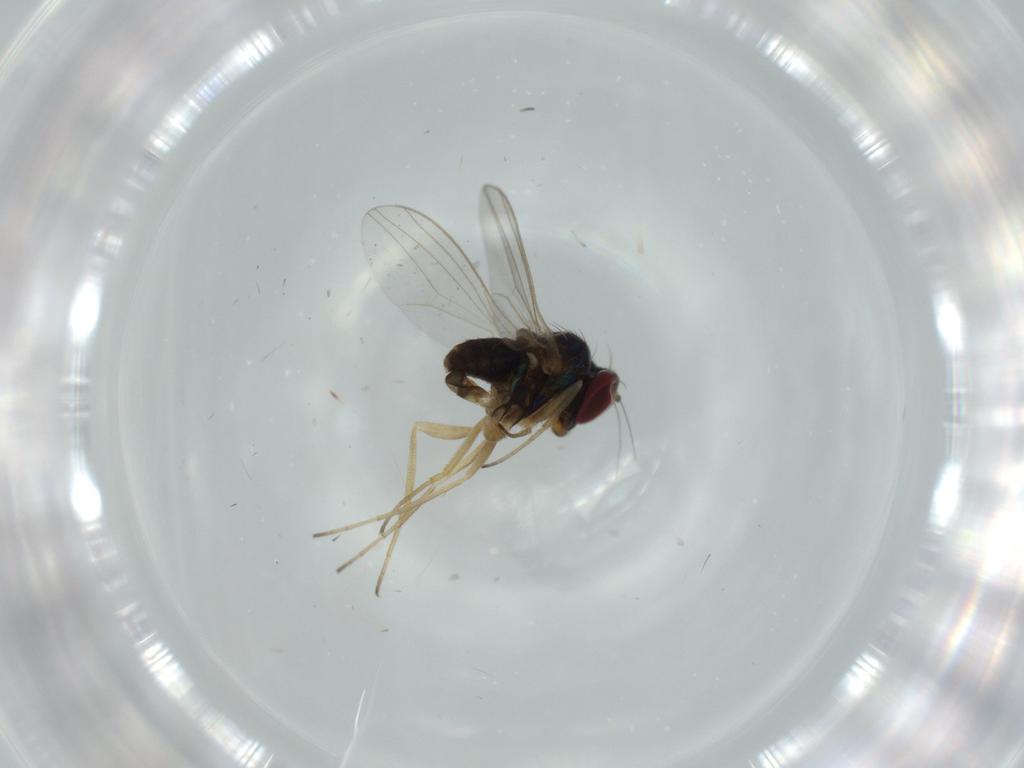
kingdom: Animalia
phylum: Arthropoda
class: Insecta
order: Diptera
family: Dolichopodidae
